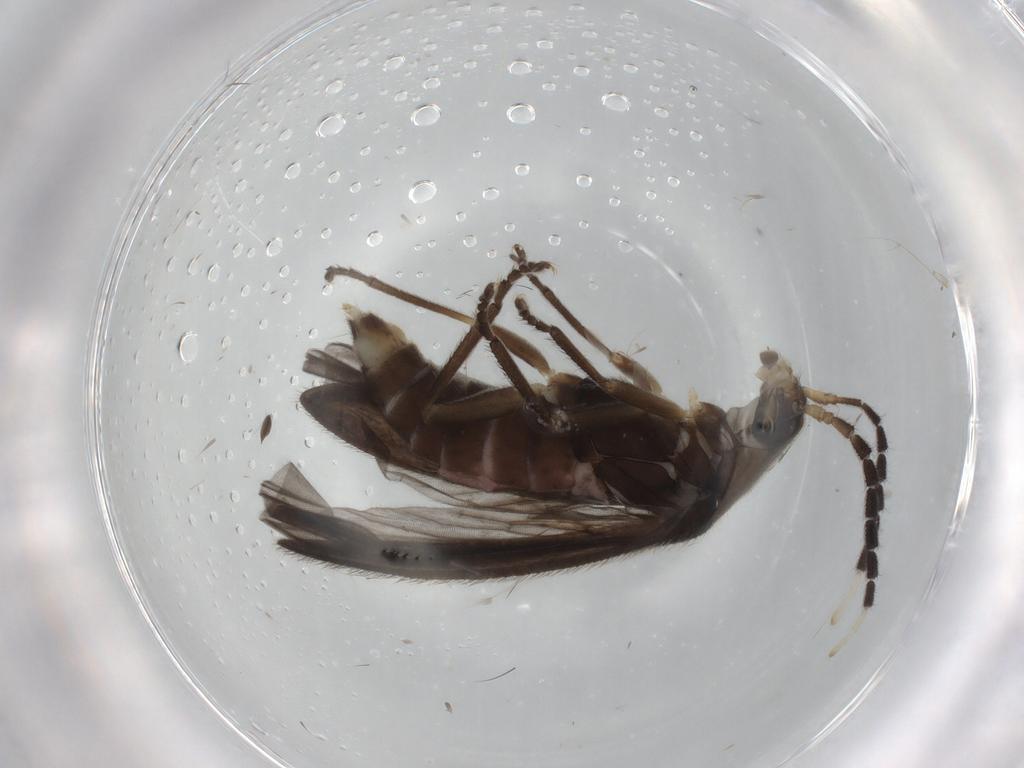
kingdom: Animalia
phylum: Arthropoda
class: Insecta
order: Coleoptera
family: Lampyridae
